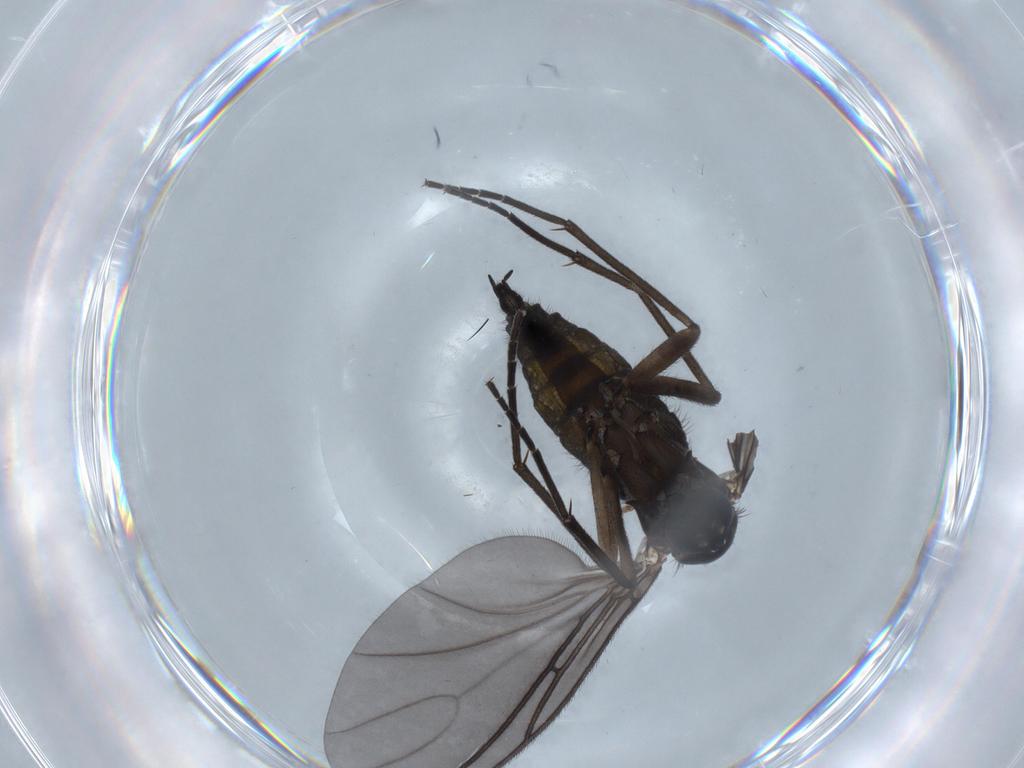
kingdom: Animalia
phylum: Arthropoda
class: Insecta
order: Diptera
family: Sciaridae
